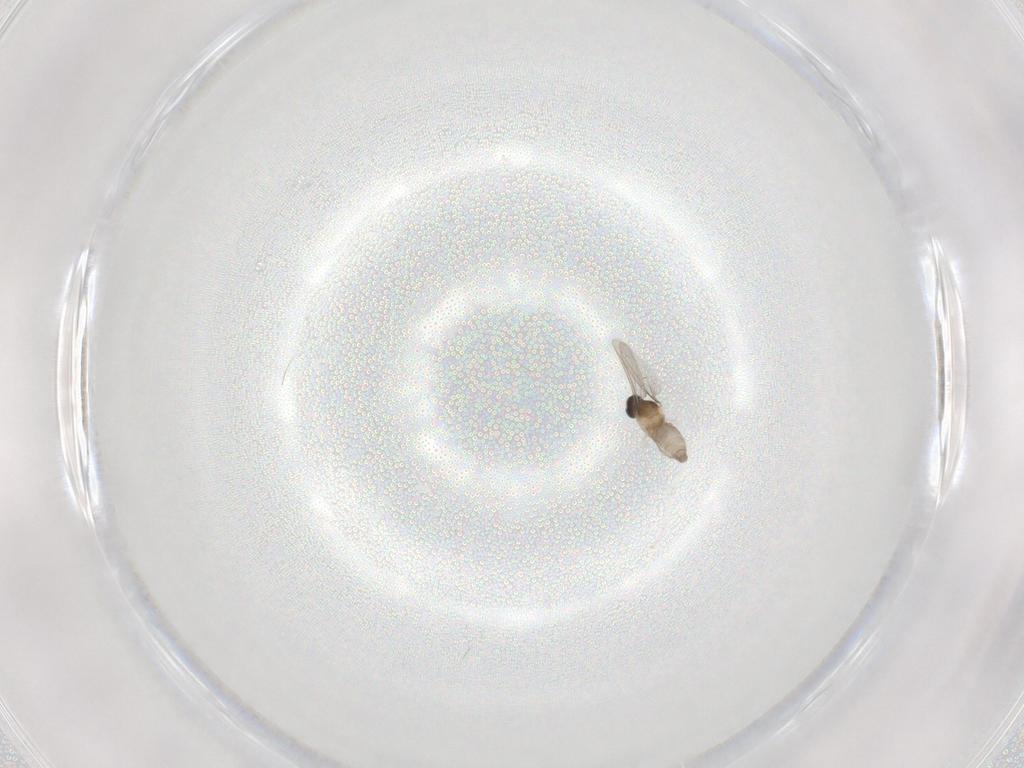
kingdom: Animalia
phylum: Arthropoda
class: Insecta
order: Diptera
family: Cecidomyiidae
